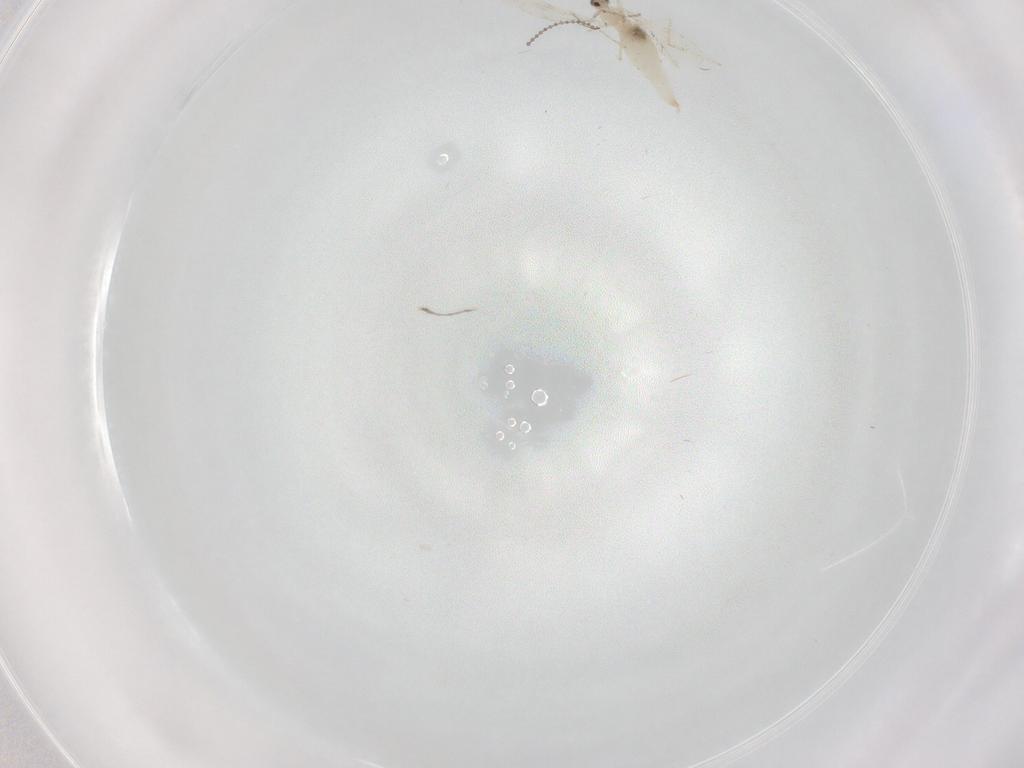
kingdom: Animalia
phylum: Arthropoda
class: Insecta
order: Diptera
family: Cecidomyiidae
